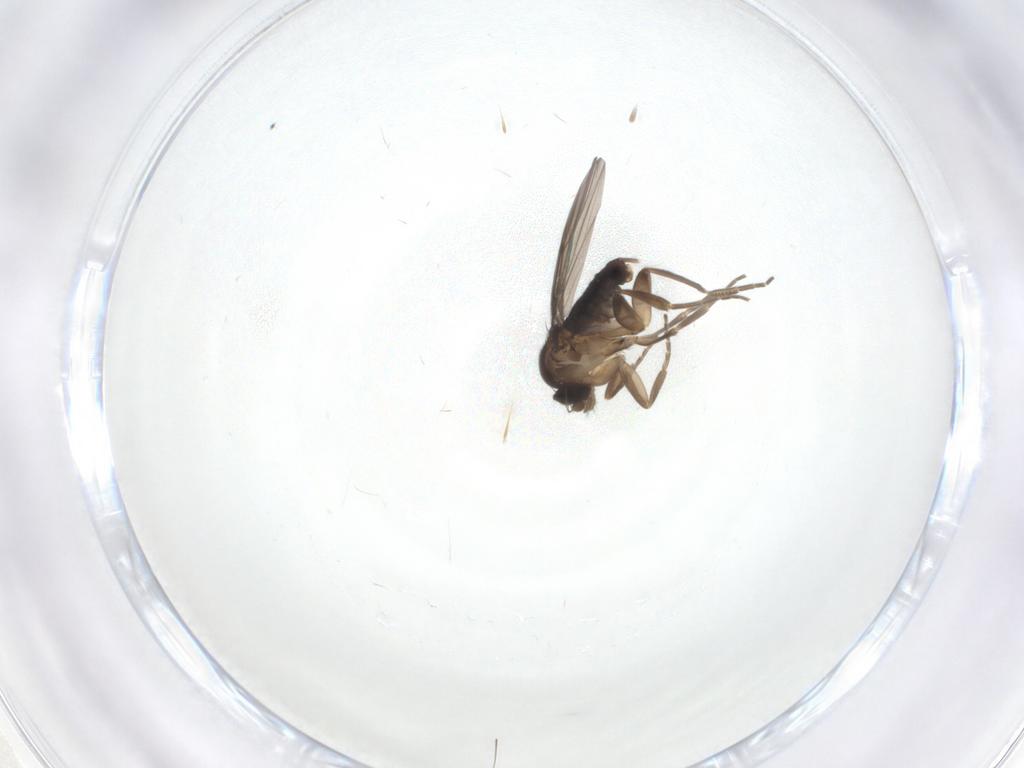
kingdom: Animalia
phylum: Arthropoda
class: Insecta
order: Diptera
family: Phoridae
